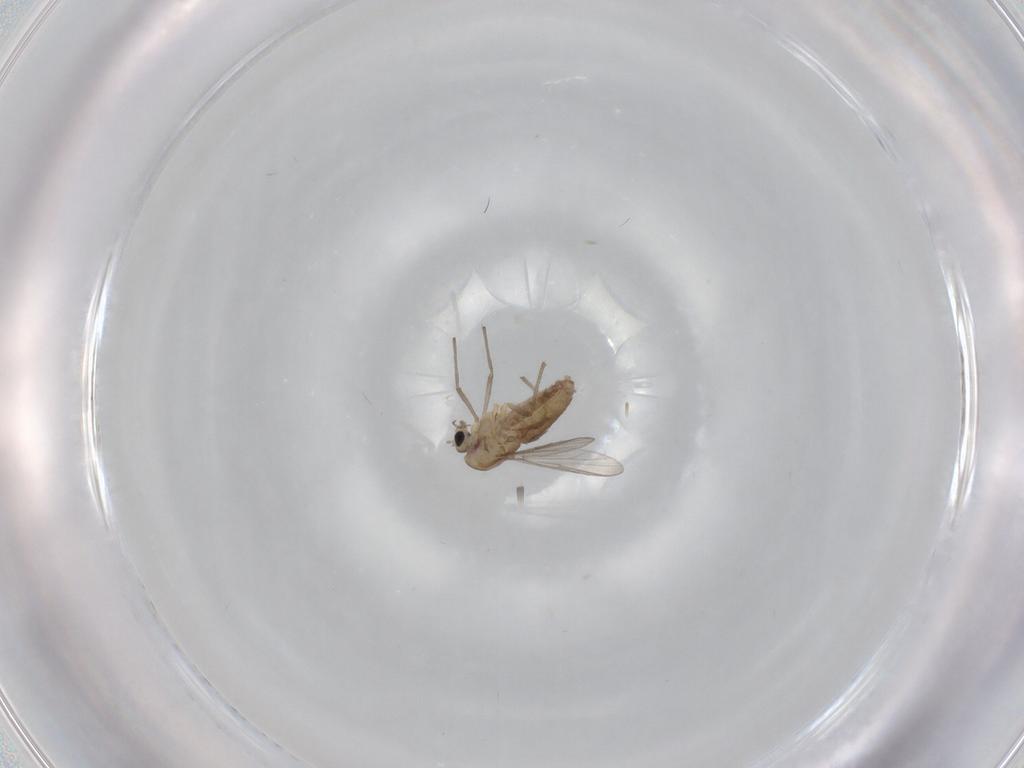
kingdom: Animalia
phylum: Arthropoda
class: Insecta
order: Diptera
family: Chironomidae
